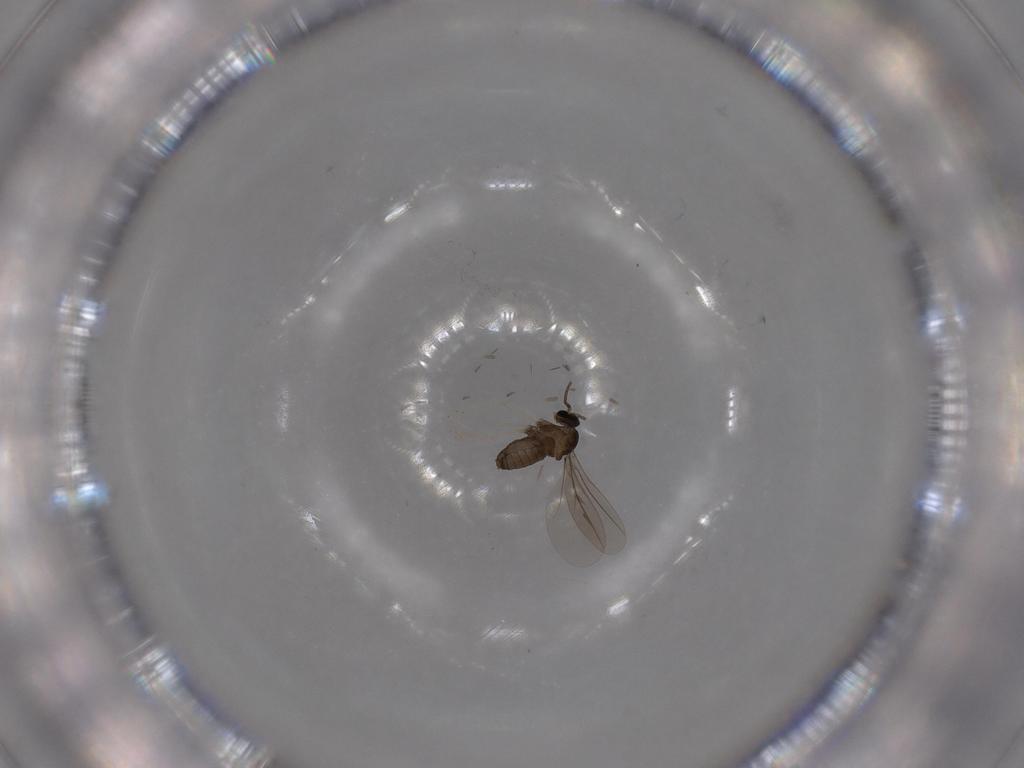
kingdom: Animalia
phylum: Arthropoda
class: Insecta
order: Diptera
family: Cecidomyiidae
